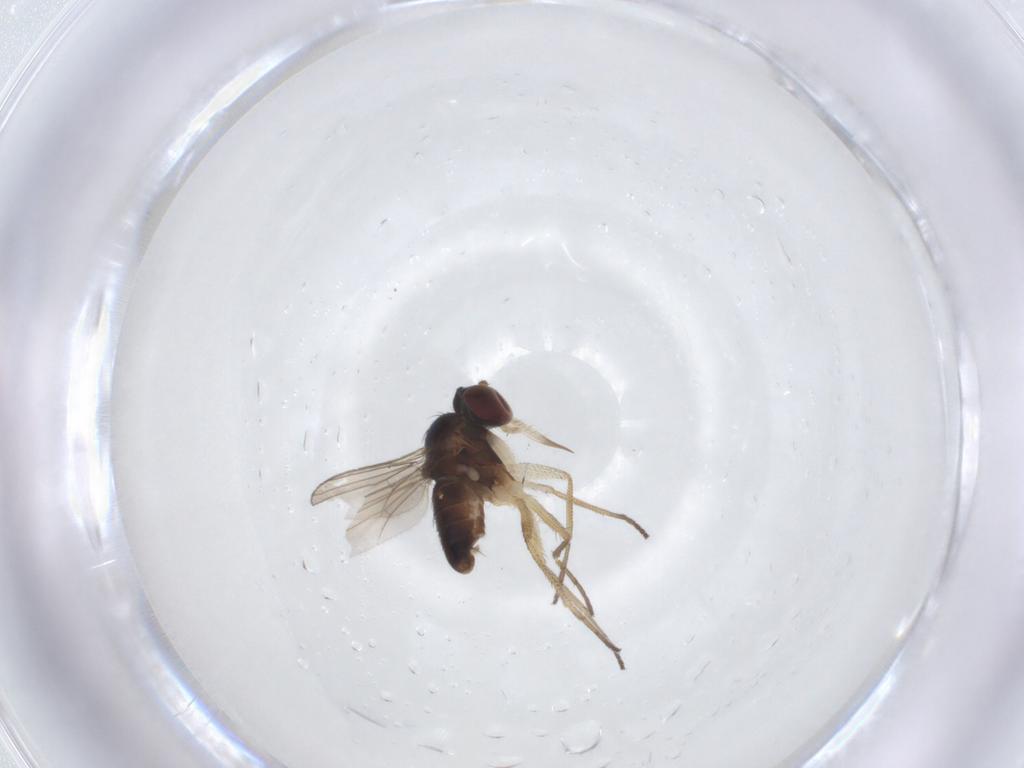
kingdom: Animalia
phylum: Arthropoda
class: Insecta
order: Diptera
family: Dolichopodidae
